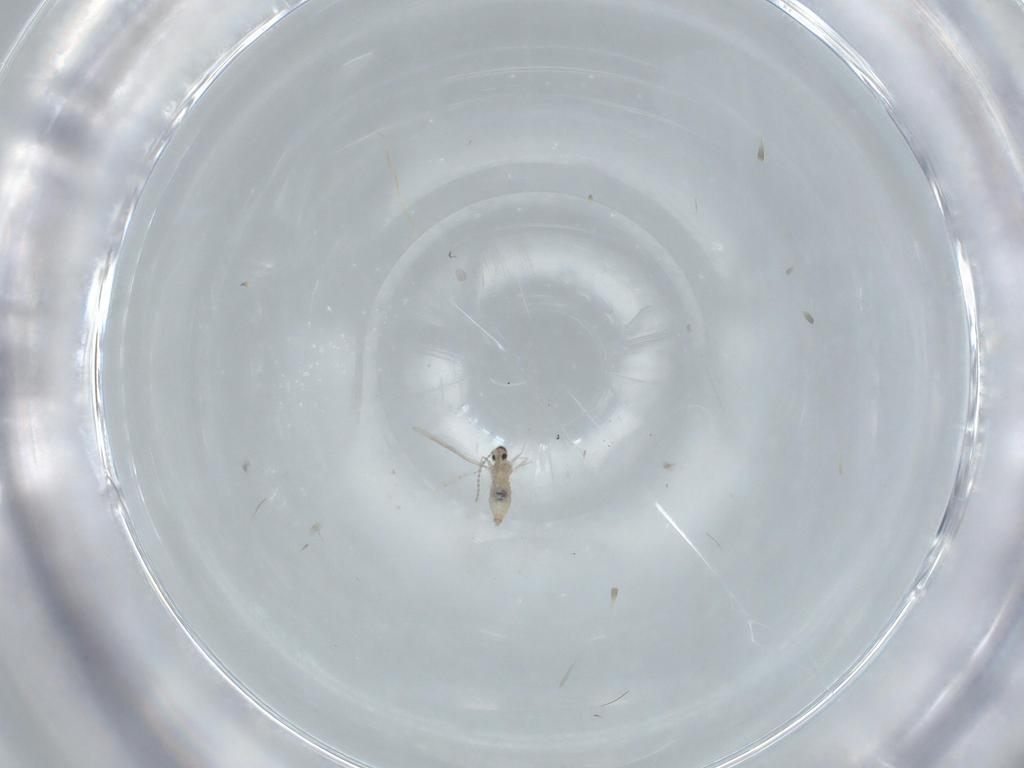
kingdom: Animalia
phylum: Arthropoda
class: Insecta
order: Diptera
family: Cecidomyiidae
